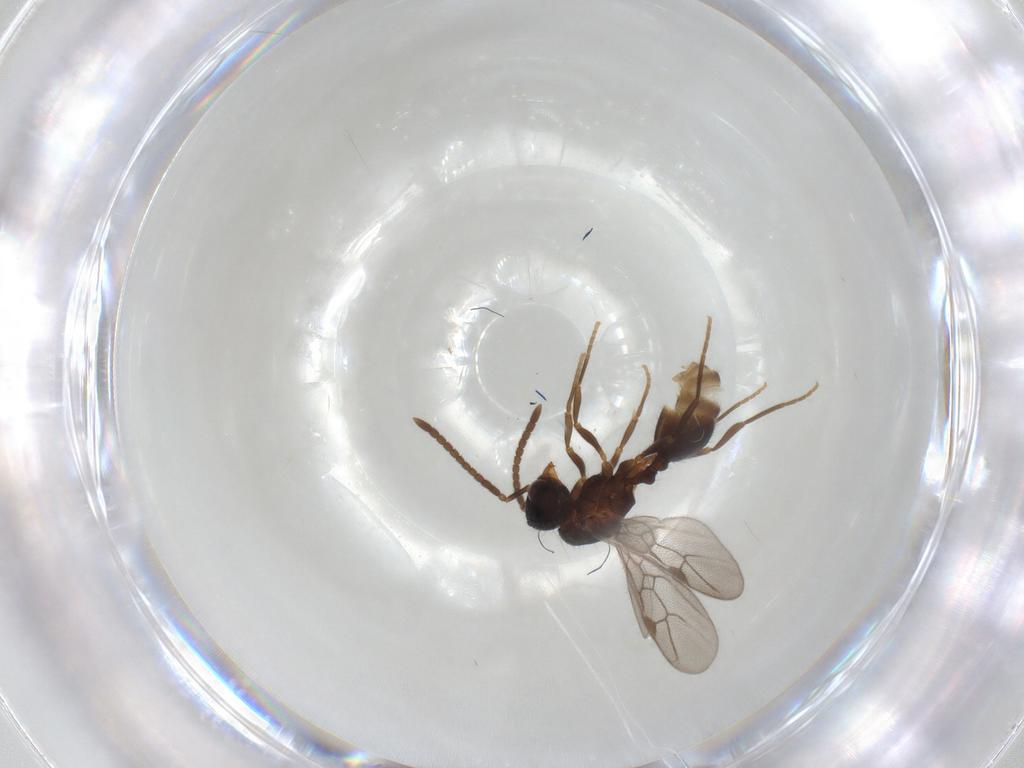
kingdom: Animalia
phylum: Arthropoda
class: Insecta
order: Hymenoptera
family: Formicidae
